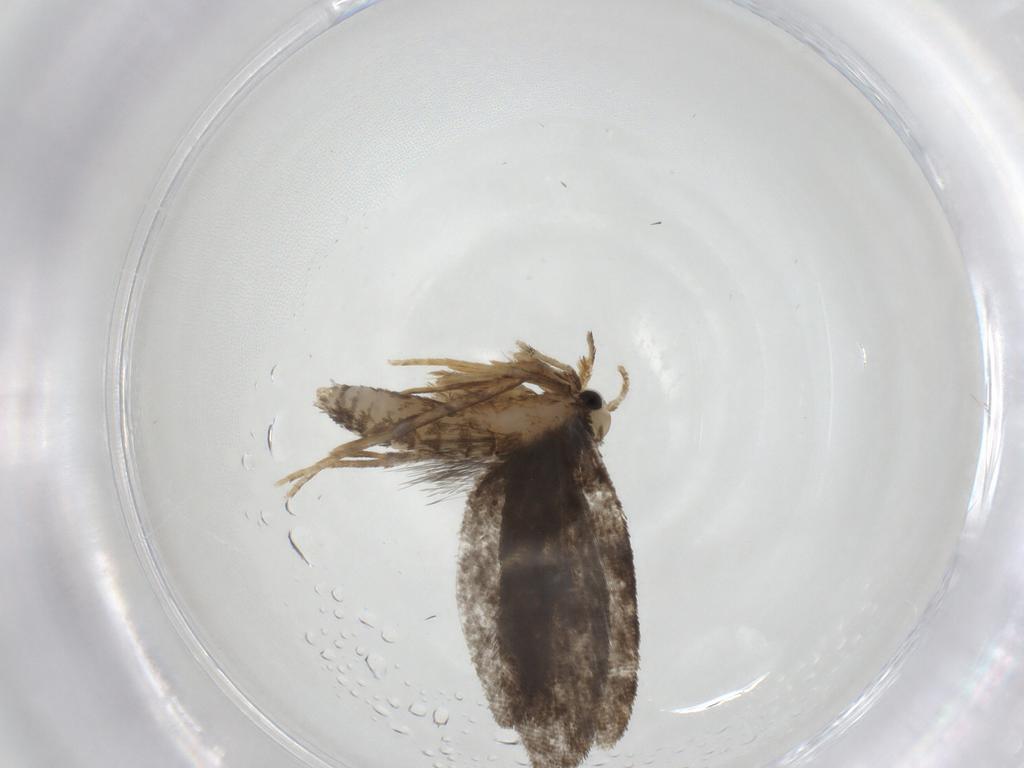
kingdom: Animalia
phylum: Arthropoda
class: Insecta
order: Lepidoptera
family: Psychidae
